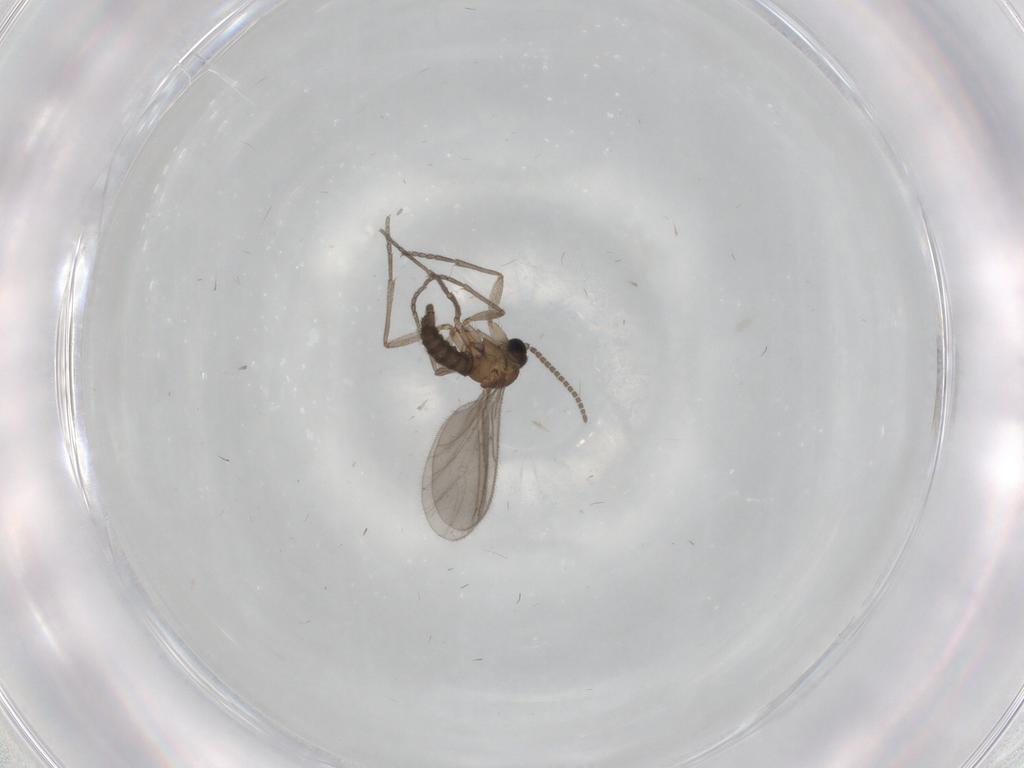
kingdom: Animalia
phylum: Arthropoda
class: Insecta
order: Diptera
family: Sciaridae
